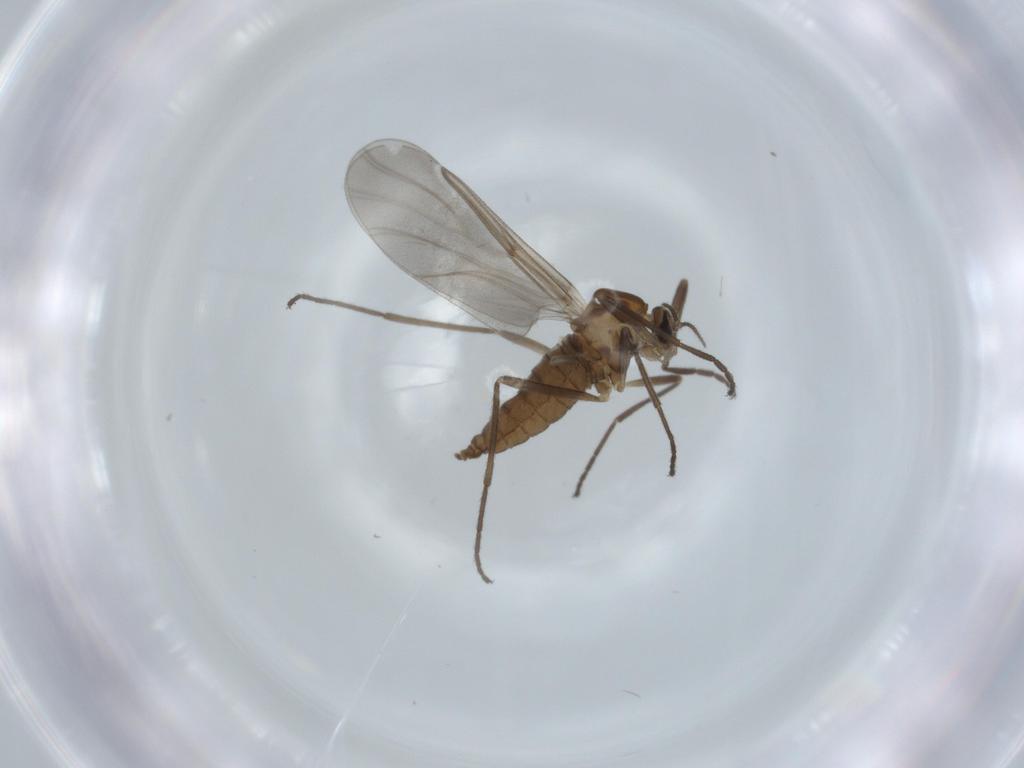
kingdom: Animalia
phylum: Arthropoda
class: Insecta
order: Diptera
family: Cecidomyiidae
